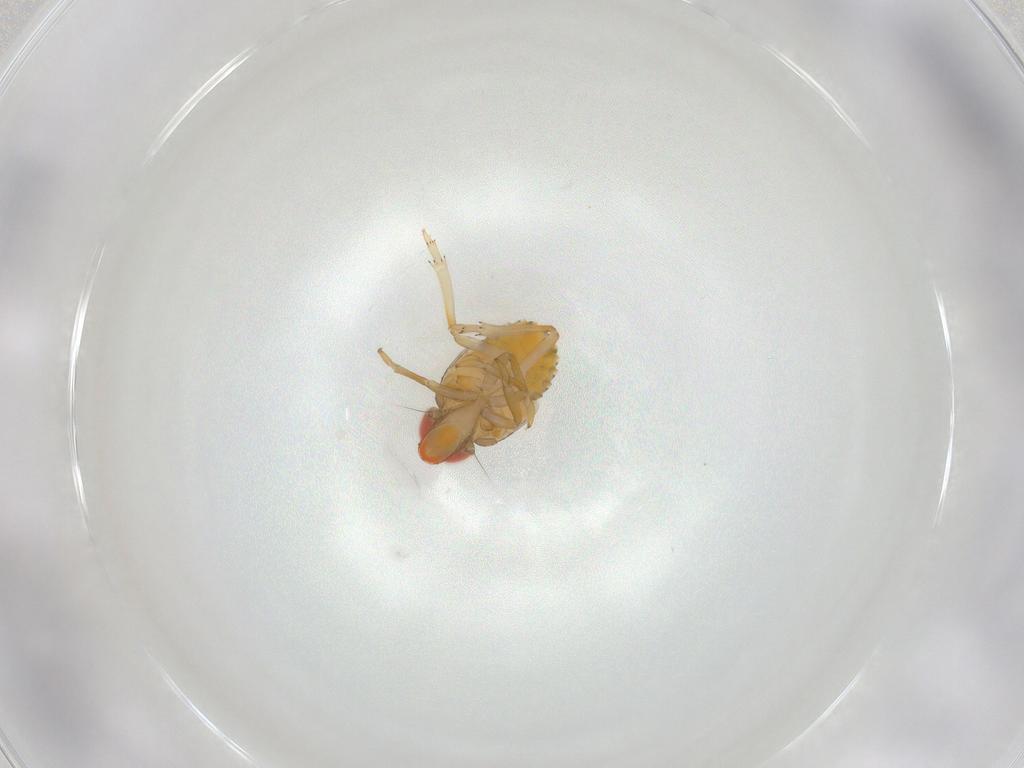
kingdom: Animalia
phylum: Arthropoda
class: Insecta
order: Hemiptera
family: Issidae
